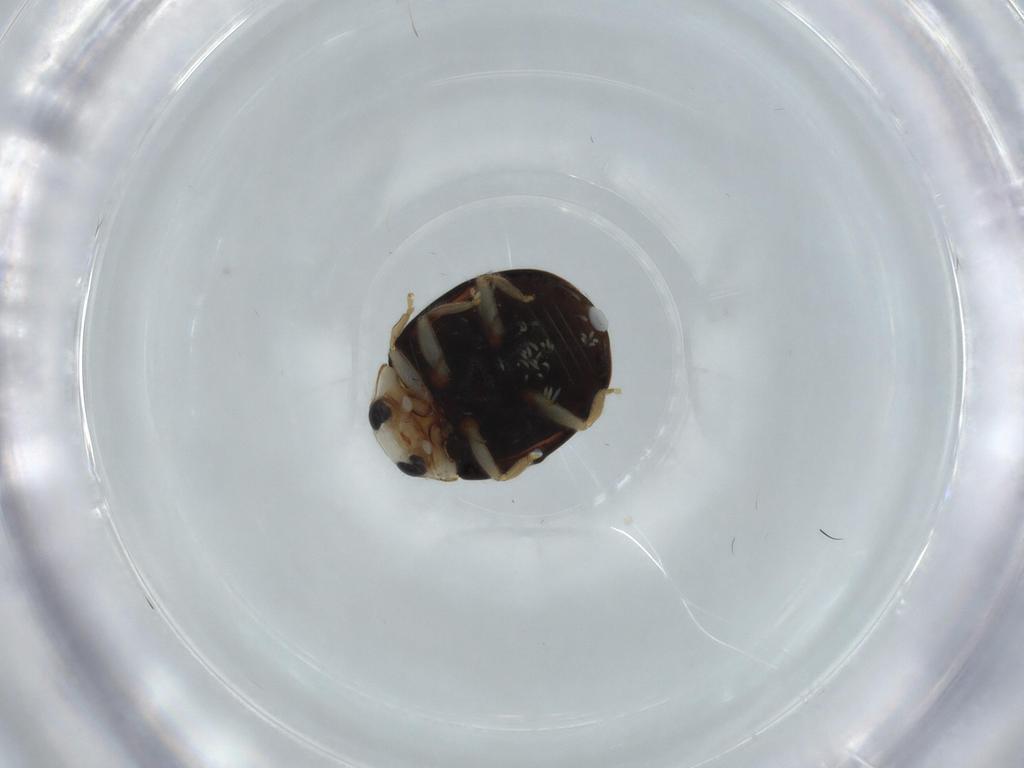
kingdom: Animalia
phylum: Arthropoda
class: Insecta
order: Coleoptera
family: Coccinellidae
